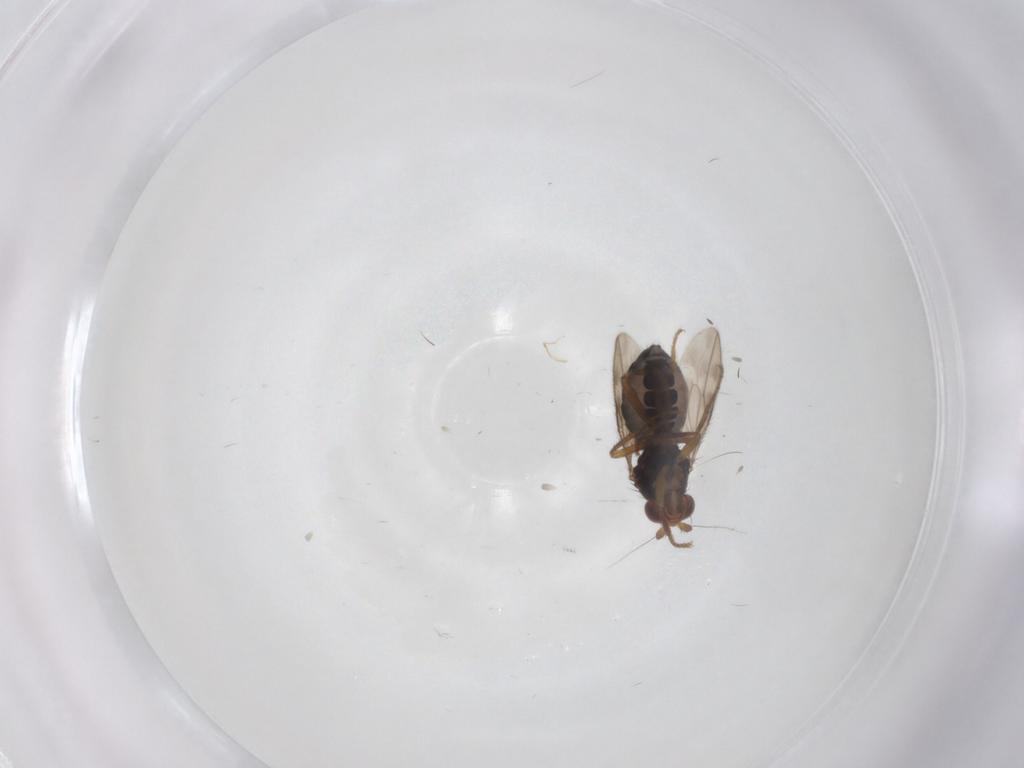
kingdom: Animalia
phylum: Arthropoda
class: Insecta
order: Diptera
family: Sphaeroceridae
